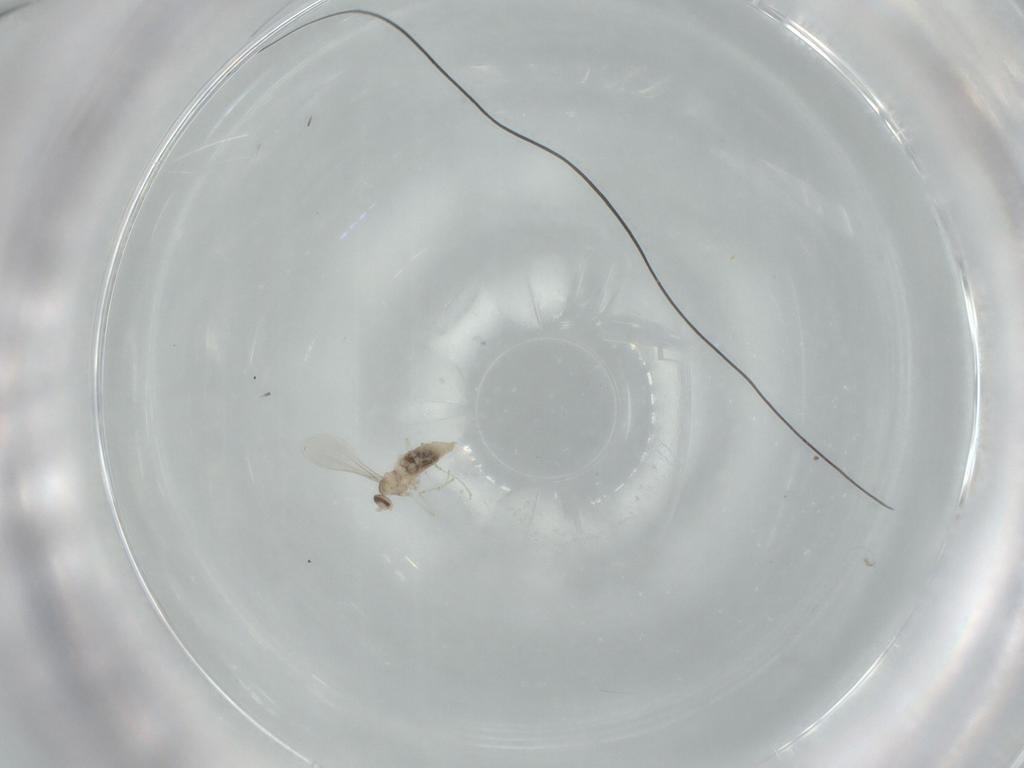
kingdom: Animalia
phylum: Arthropoda
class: Insecta
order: Diptera
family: Cecidomyiidae
